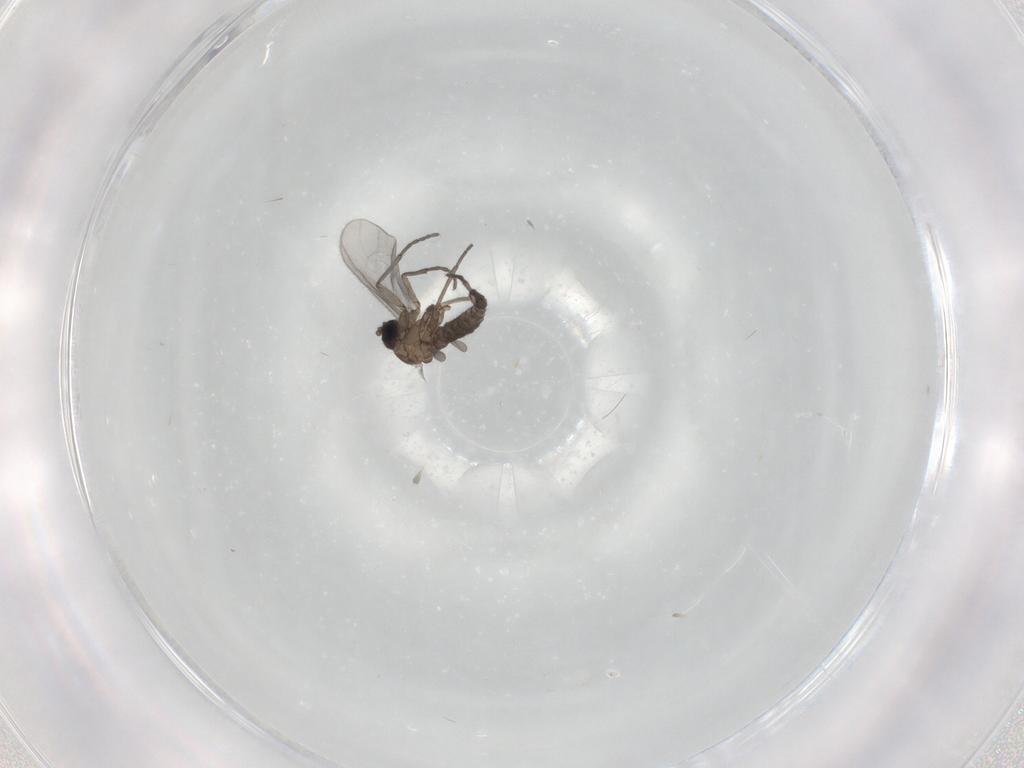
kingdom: Animalia
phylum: Arthropoda
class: Insecta
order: Diptera
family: Sciaridae
